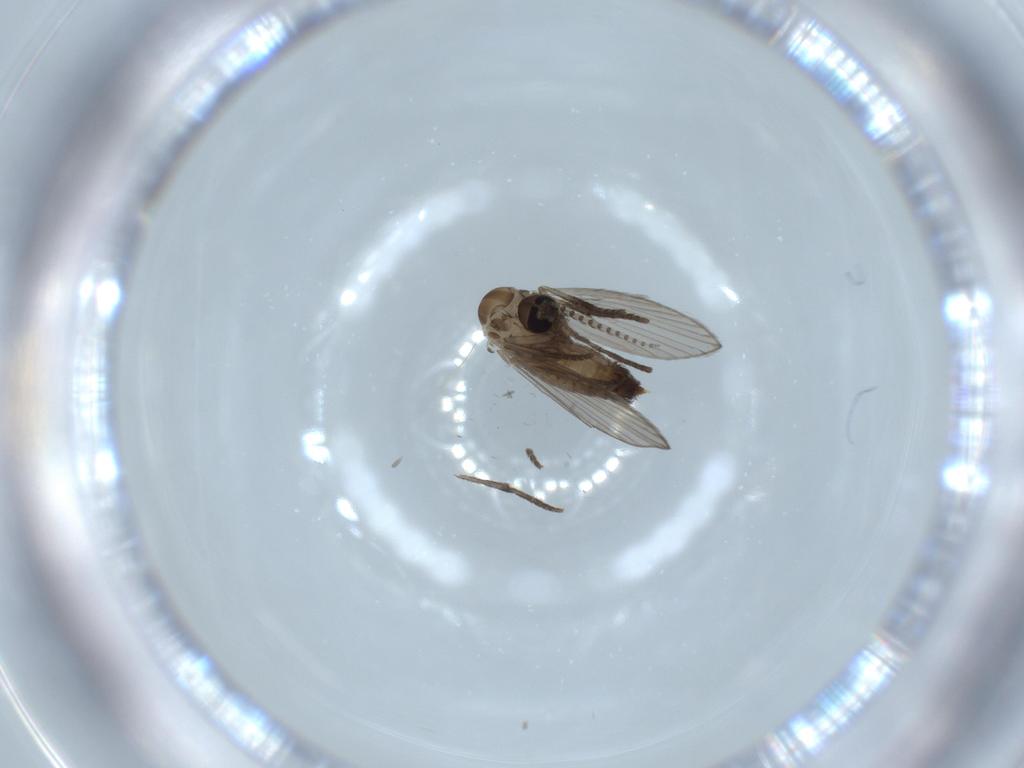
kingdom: Animalia
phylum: Arthropoda
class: Insecta
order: Diptera
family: Psychodidae
